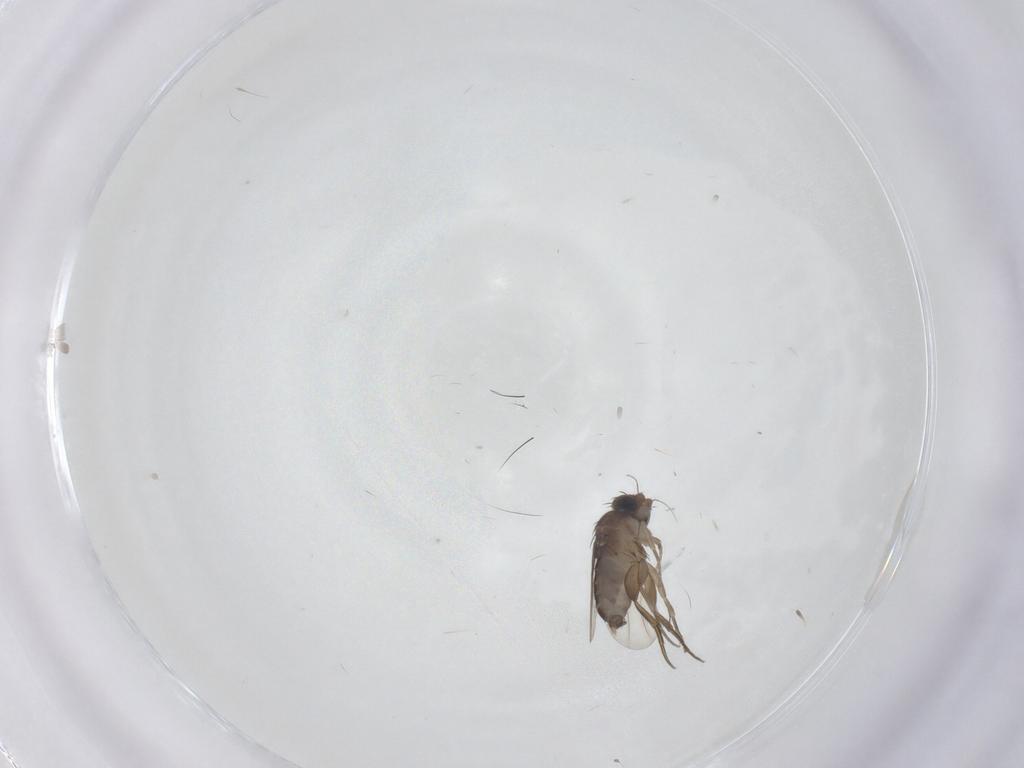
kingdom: Animalia
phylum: Arthropoda
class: Insecta
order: Diptera
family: Phoridae
